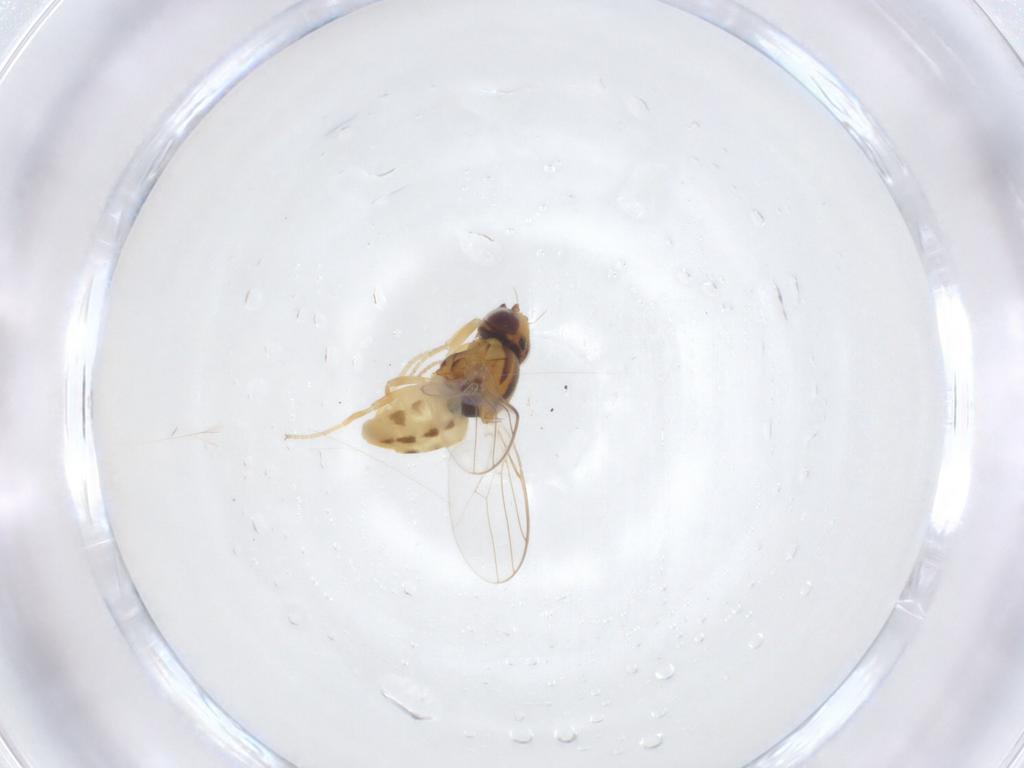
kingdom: Animalia
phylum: Arthropoda
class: Insecta
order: Diptera
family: Chloropidae
